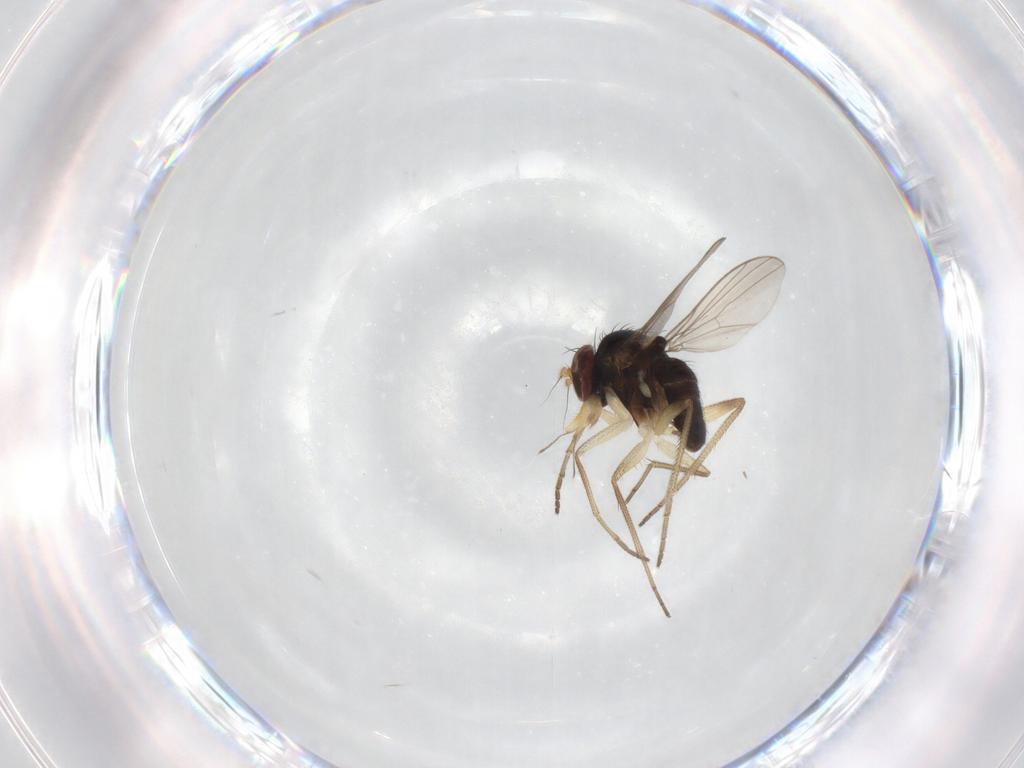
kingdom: Animalia
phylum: Arthropoda
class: Insecta
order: Diptera
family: Dolichopodidae
